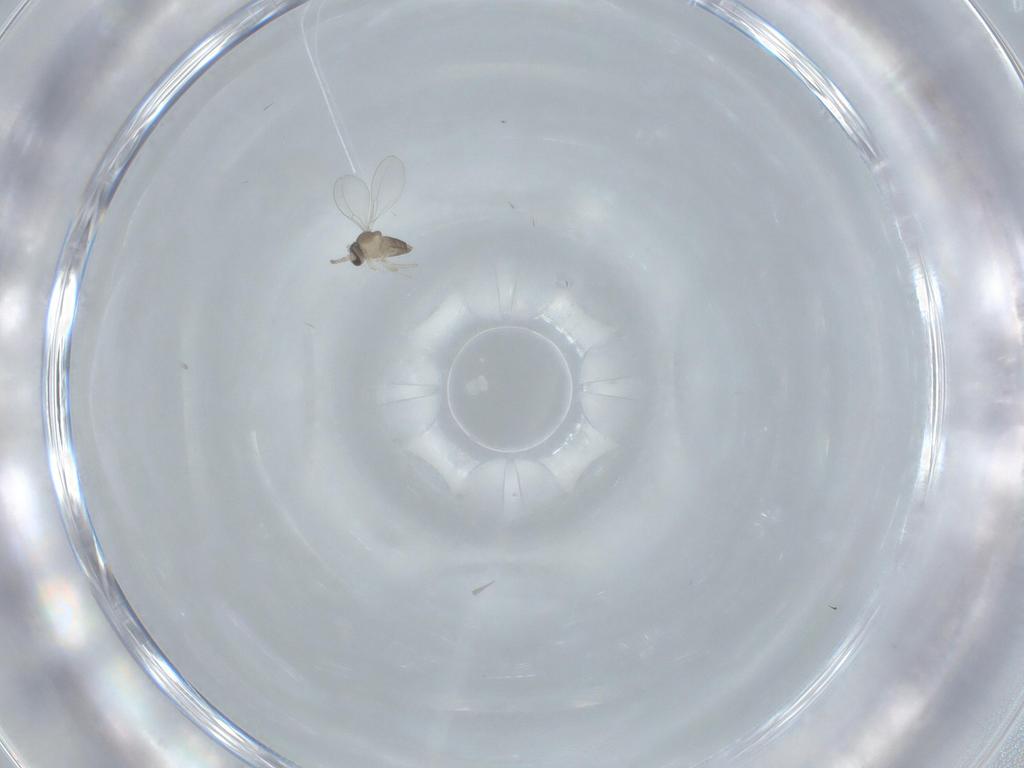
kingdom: Animalia
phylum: Arthropoda
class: Insecta
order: Diptera
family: Cecidomyiidae
